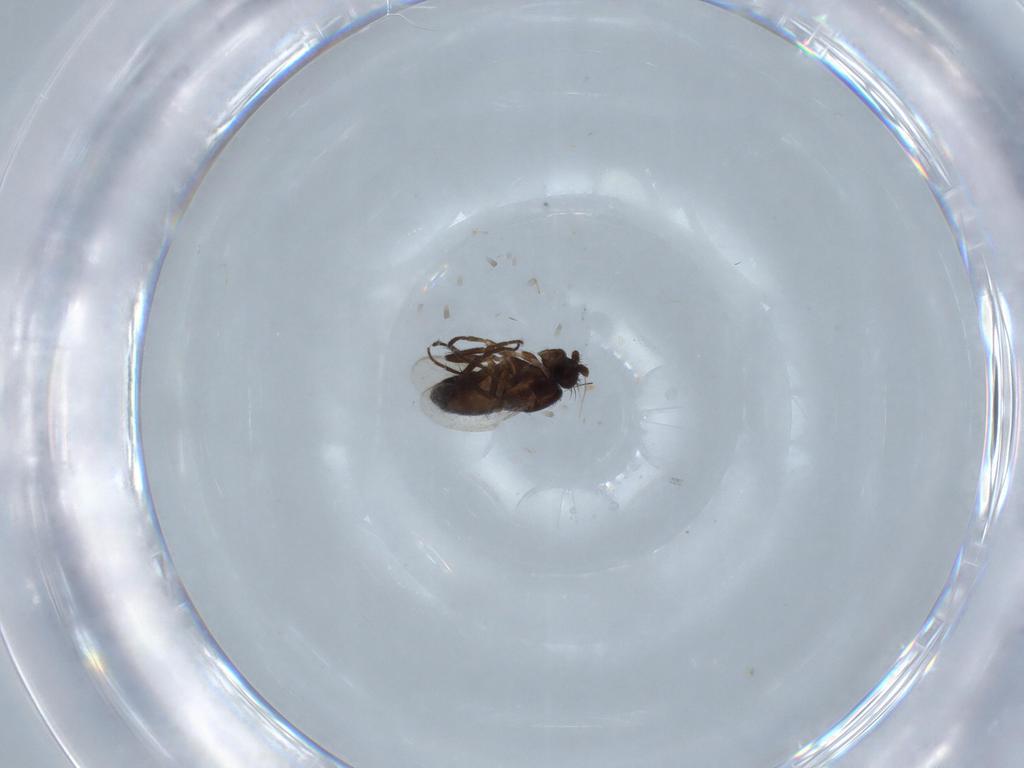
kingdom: Animalia
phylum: Arthropoda
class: Insecta
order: Diptera
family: Sphaeroceridae
